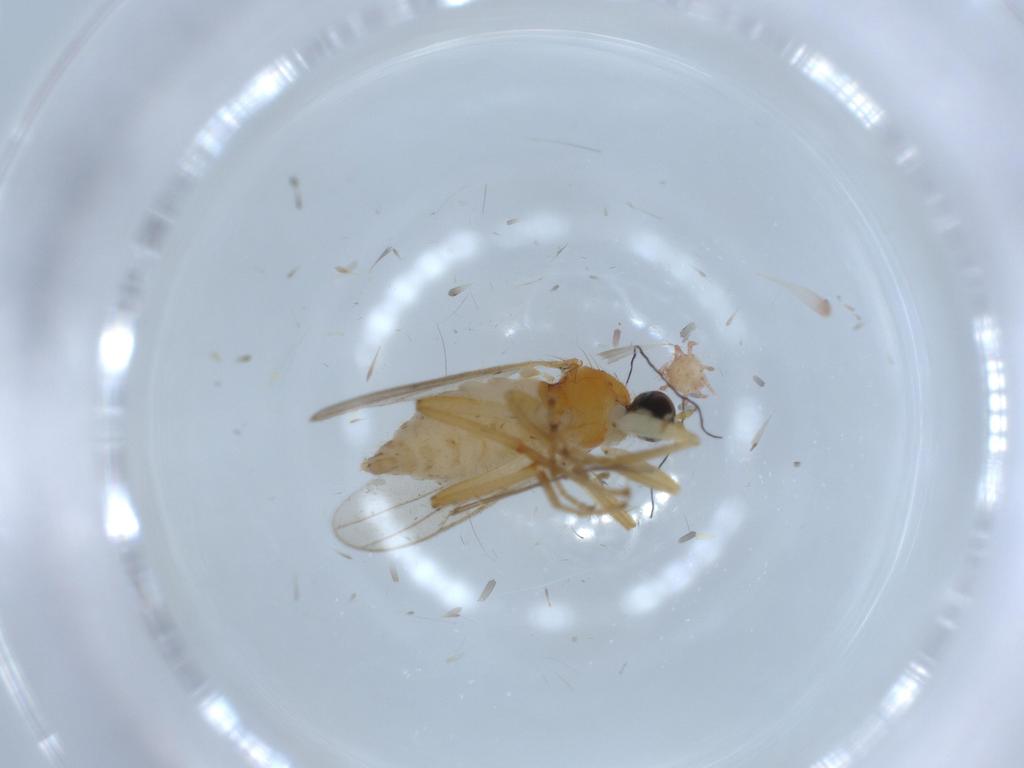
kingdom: Animalia
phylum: Arthropoda
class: Insecta
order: Diptera
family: Hybotidae
